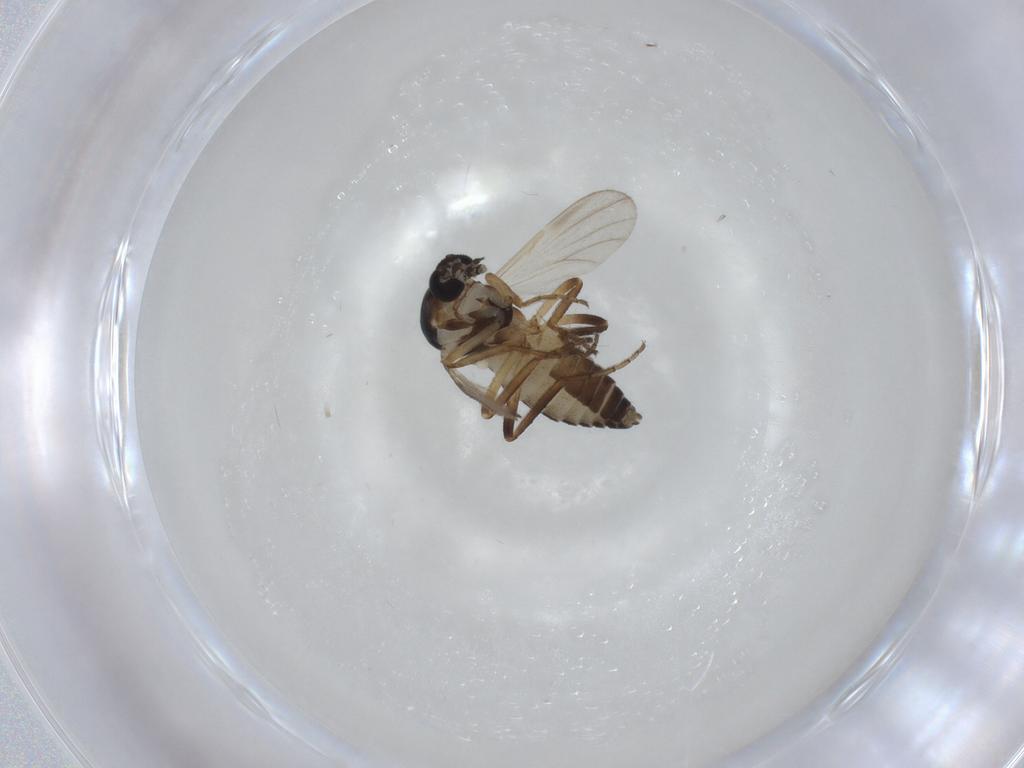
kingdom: Animalia
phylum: Arthropoda
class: Insecta
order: Diptera
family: Ceratopogonidae
